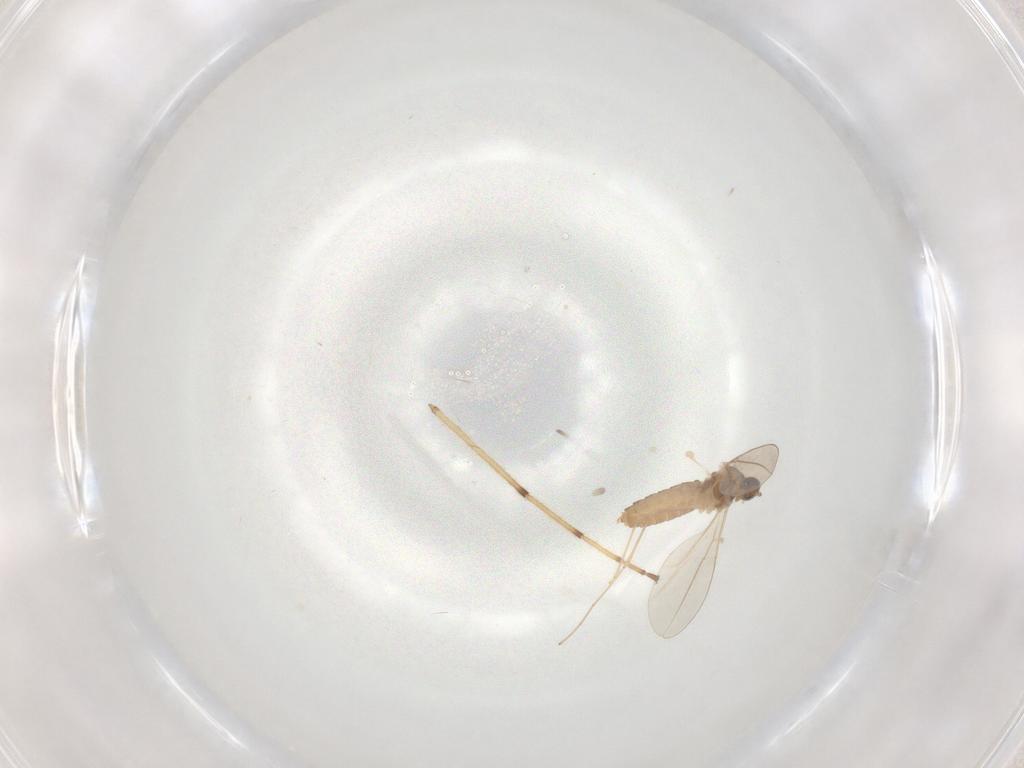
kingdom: Animalia
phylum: Arthropoda
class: Insecta
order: Diptera
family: Cecidomyiidae
